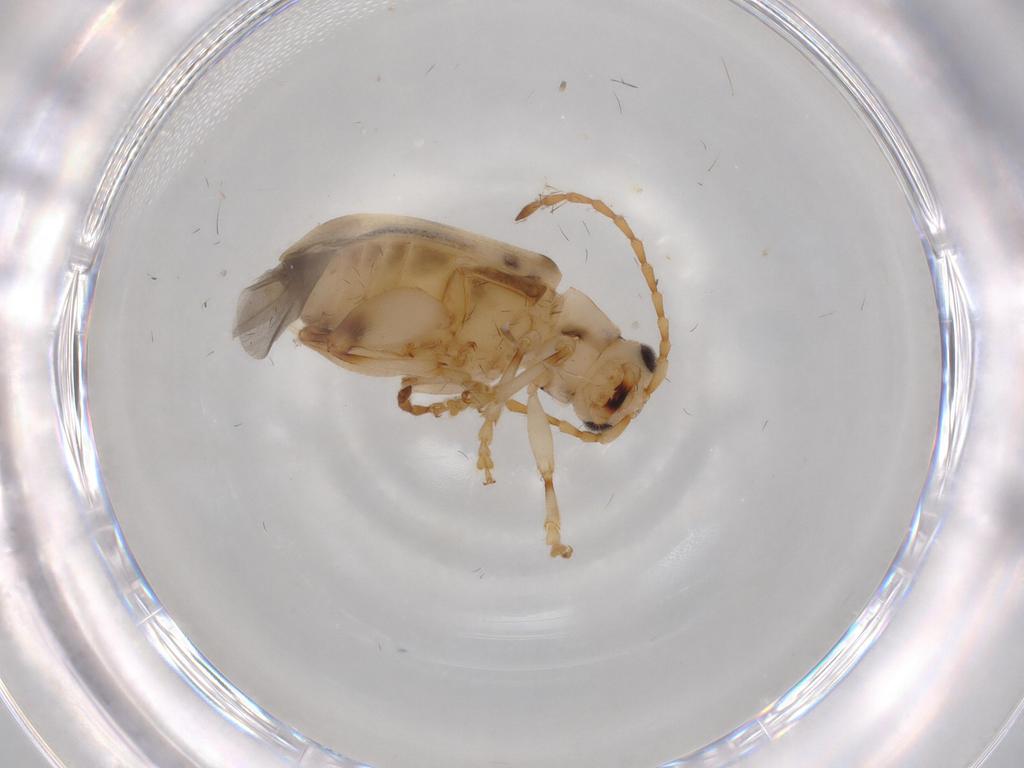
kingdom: Animalia
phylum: Arthropoda
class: Insecta
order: Coleoptera
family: Chrysomelidae
